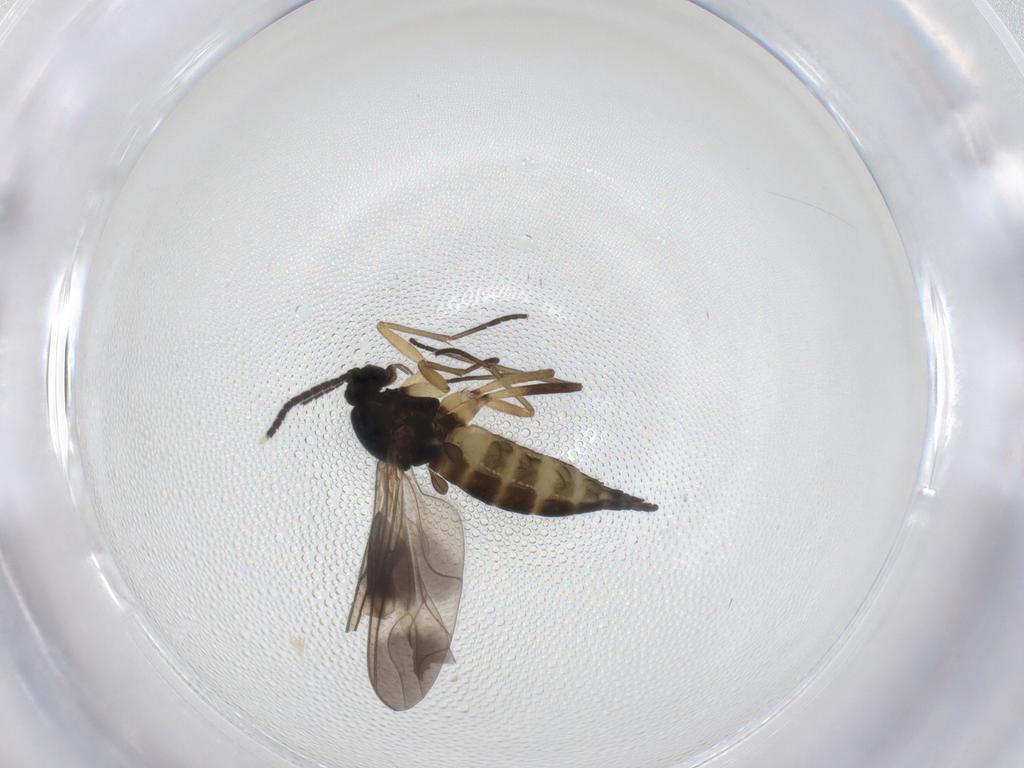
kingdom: Animalia
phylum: Arthropoda
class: Insecta
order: Diptera
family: Sciaridae
